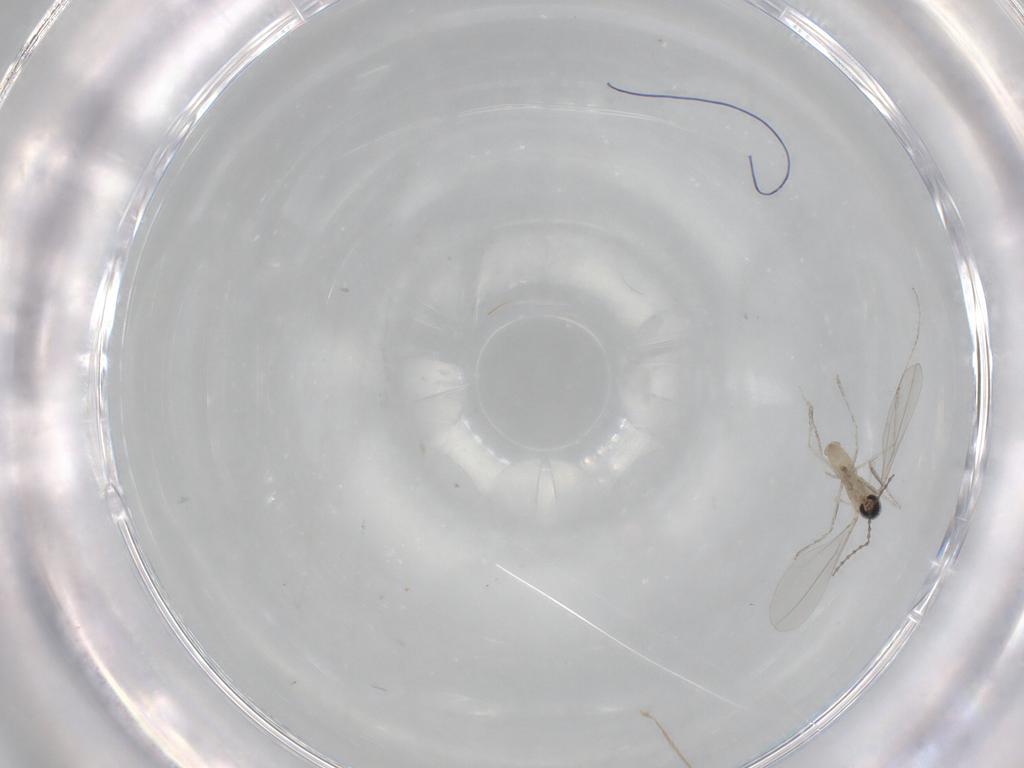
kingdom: Animalia
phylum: Arthropoda
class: Insecta
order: Diptera
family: Cecidomyiidae
